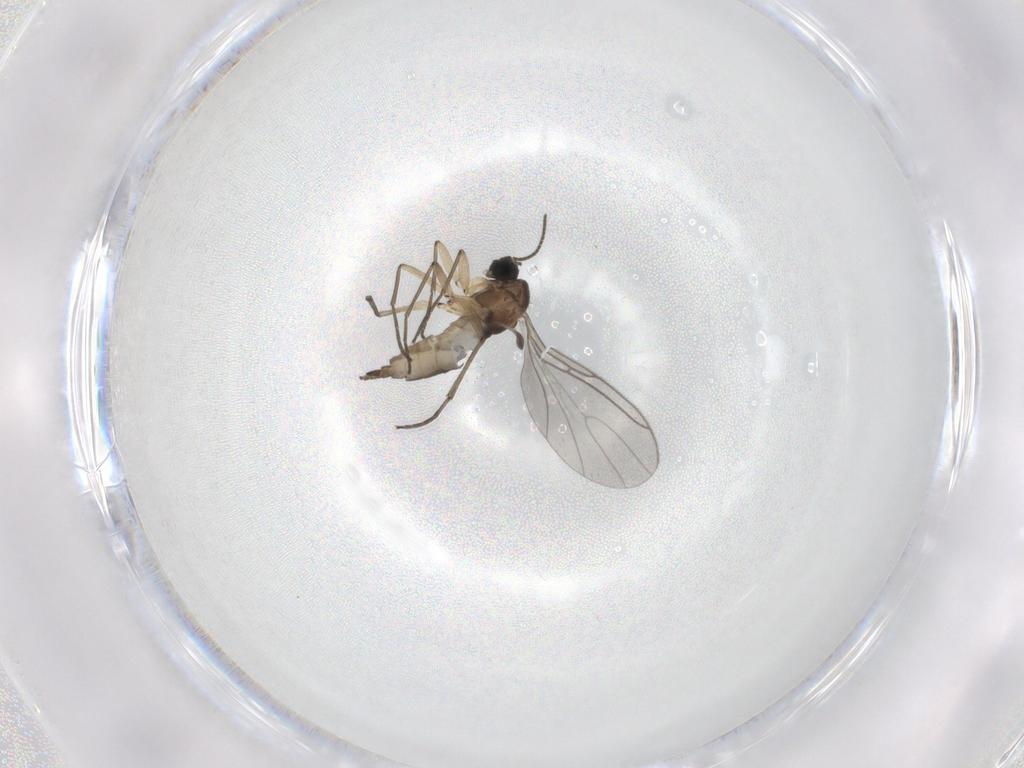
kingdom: Animalia
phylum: Arthropoda
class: Insecta
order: Diptera
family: Sciaridae
